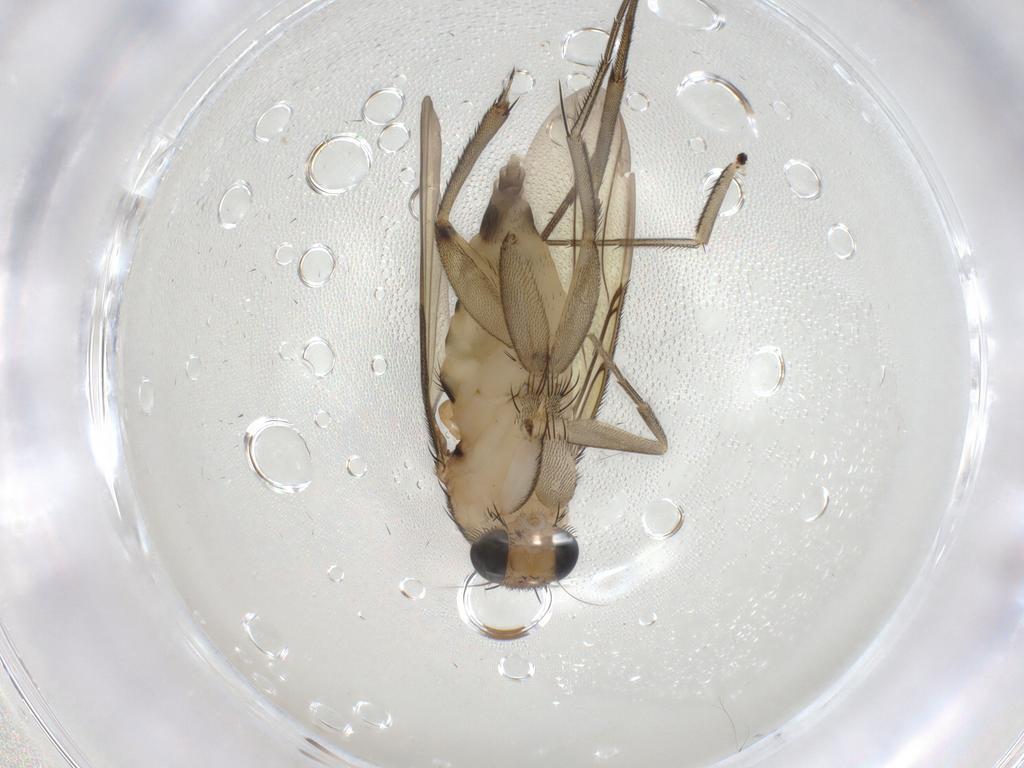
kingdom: Animalia
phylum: Arthropoda
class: Insecta
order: Diptera
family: Phoridae
